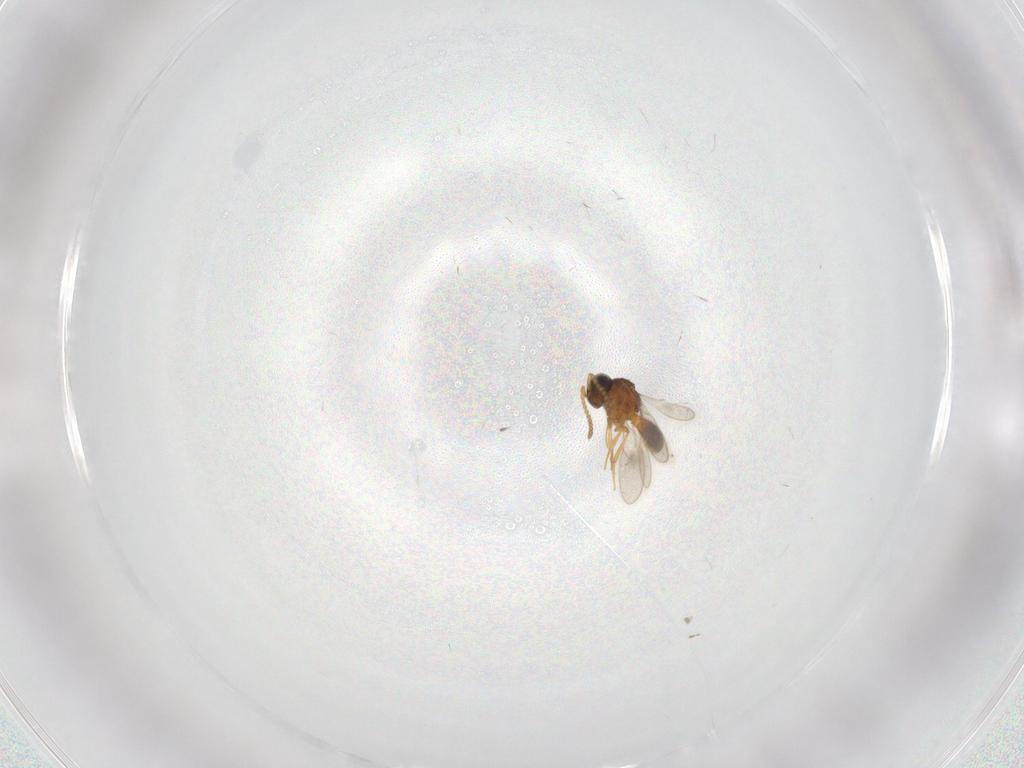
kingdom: Animalia
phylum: Arthropoda
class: Insecta
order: Hymenoptera
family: Scelionidae
